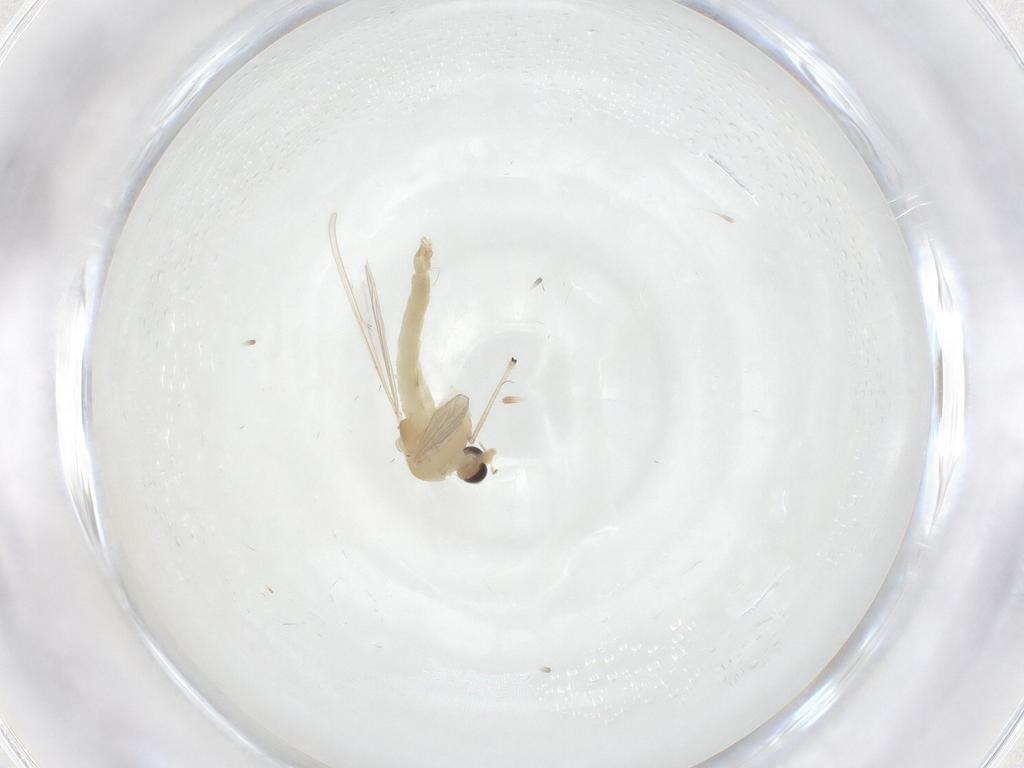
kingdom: Animalia
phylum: Arthropoda
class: Insecta
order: Diptera
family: Chironomidae
